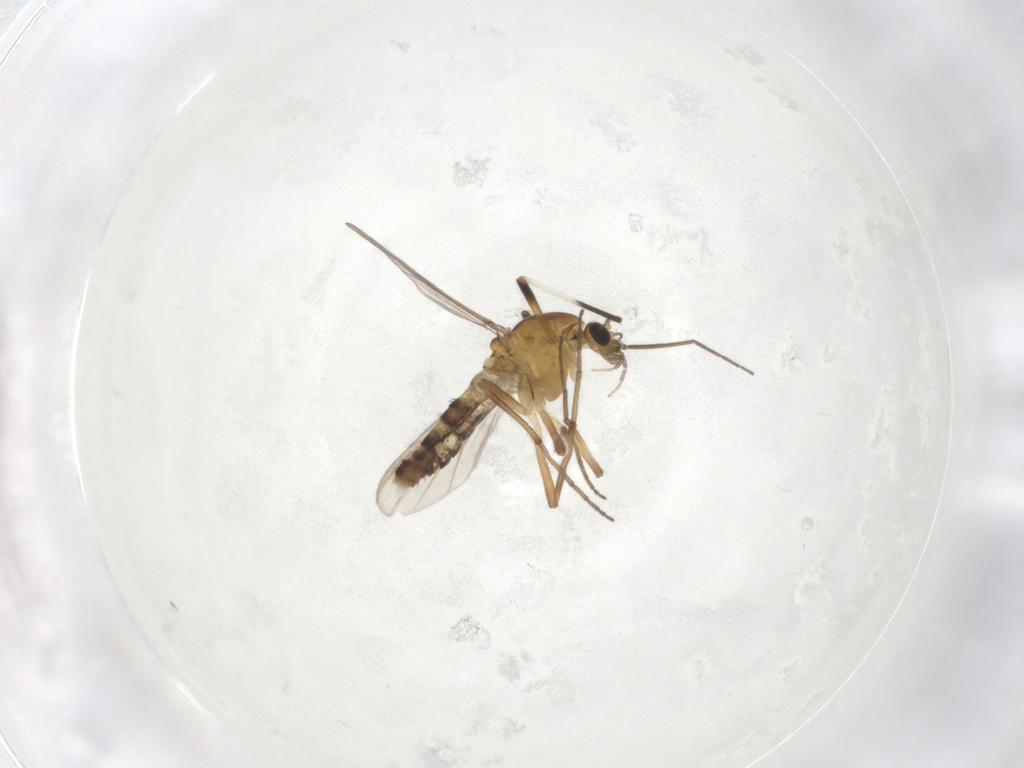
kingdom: Animalia
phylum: Arthropoda
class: Insecta
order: Diptera
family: Chironomidae
